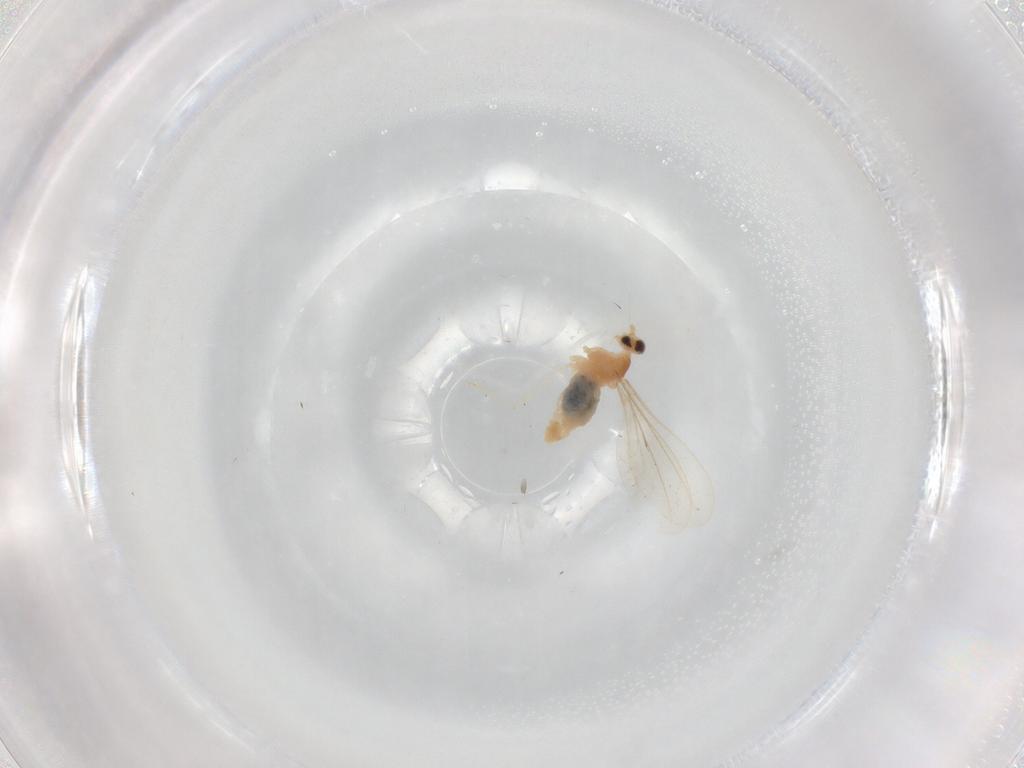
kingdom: Animalia
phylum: Arthropoda
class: Insecta
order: Diptera
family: Cecidomyiidae
